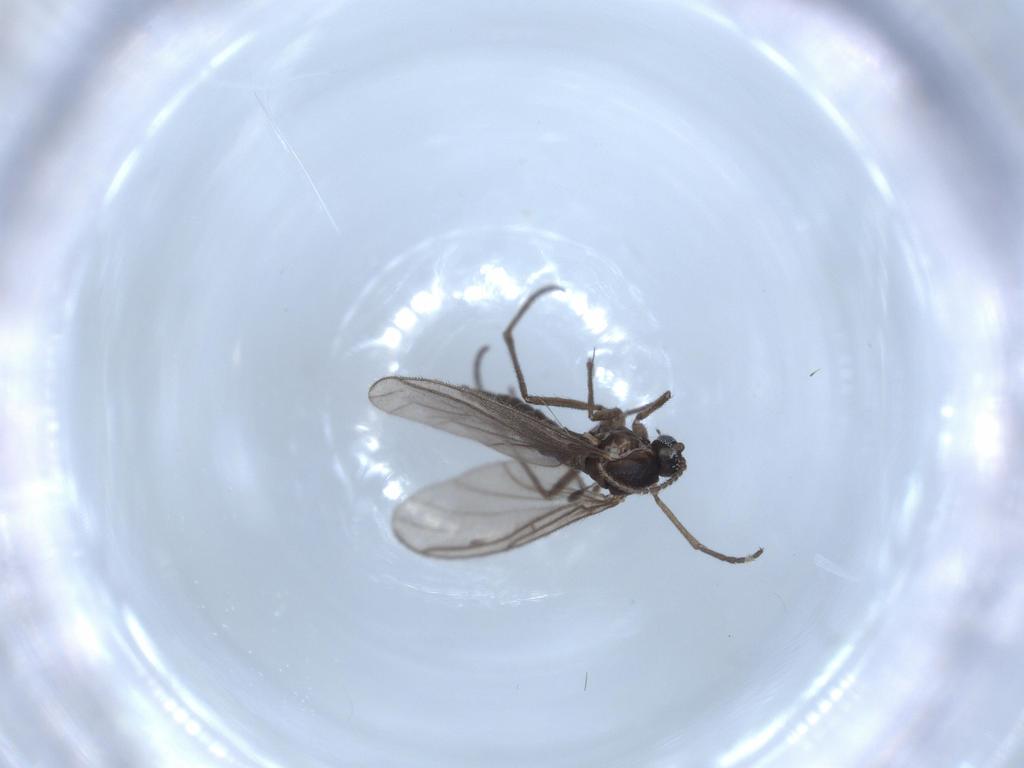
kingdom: Animalia
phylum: Arthropoda
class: Insecta
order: Diptera
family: Sciaridae
